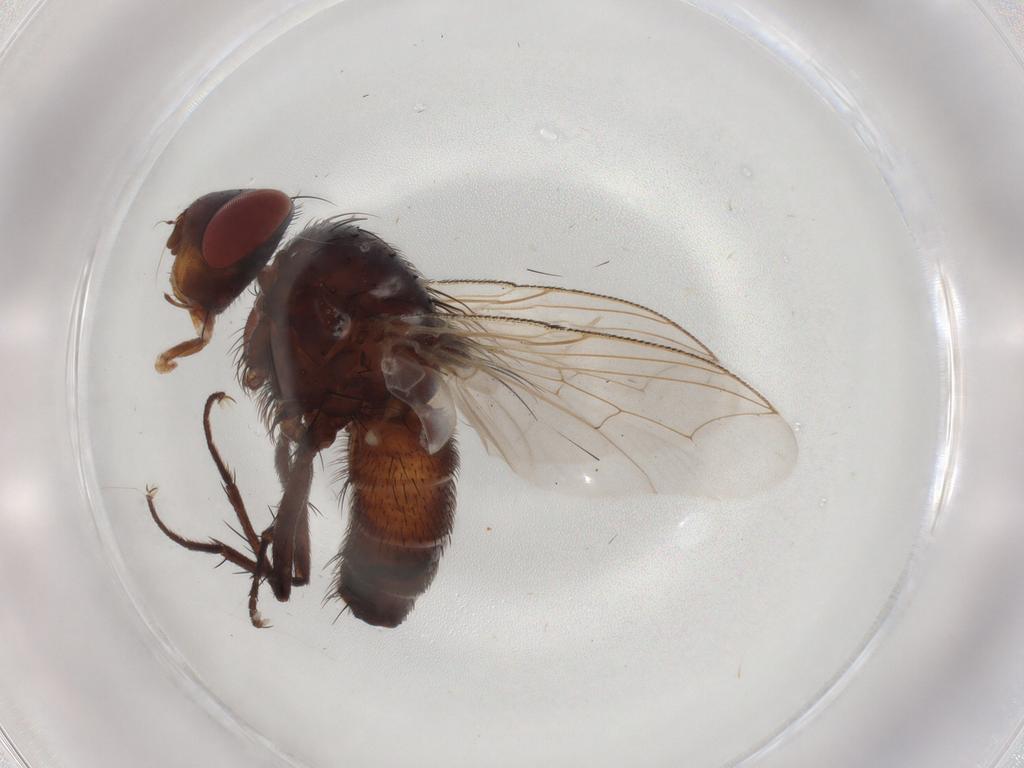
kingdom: Animalia
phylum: Arthropoda
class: Insecta
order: Diptera
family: Sarcophagidae
